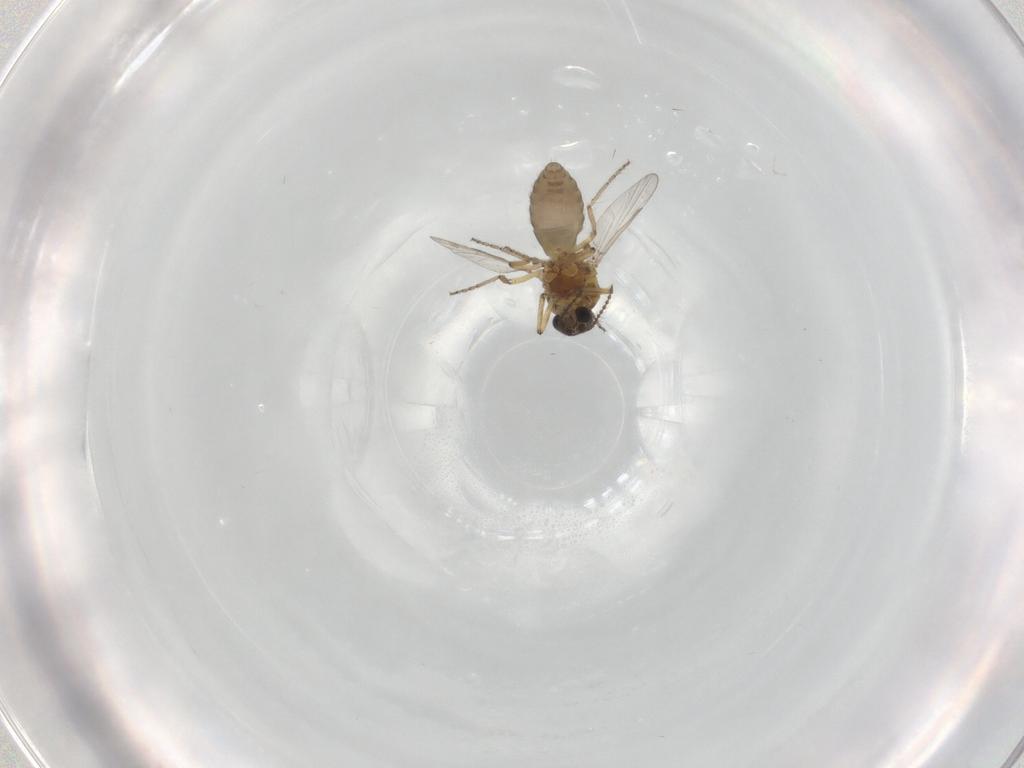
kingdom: Animalia
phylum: Arthropoda
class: Insecta
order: Diptera
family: Ceratopogonidae
